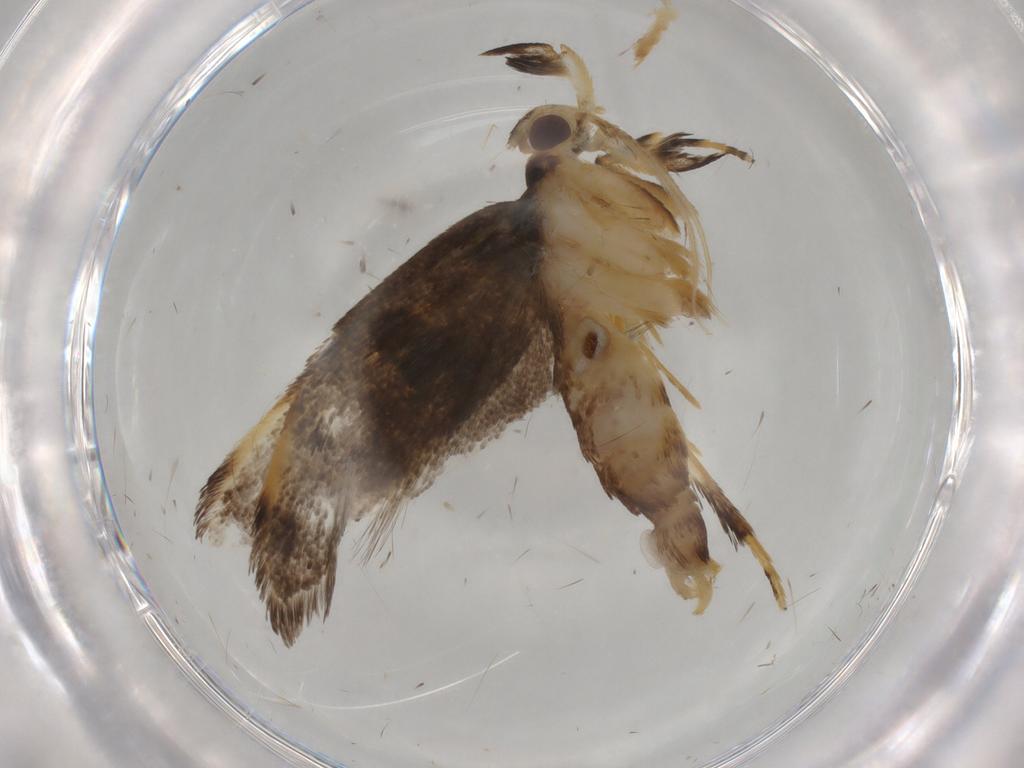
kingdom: Animalia
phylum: Arthropoda
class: Insecta
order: Lepidoptera
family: Lecithoceridae
